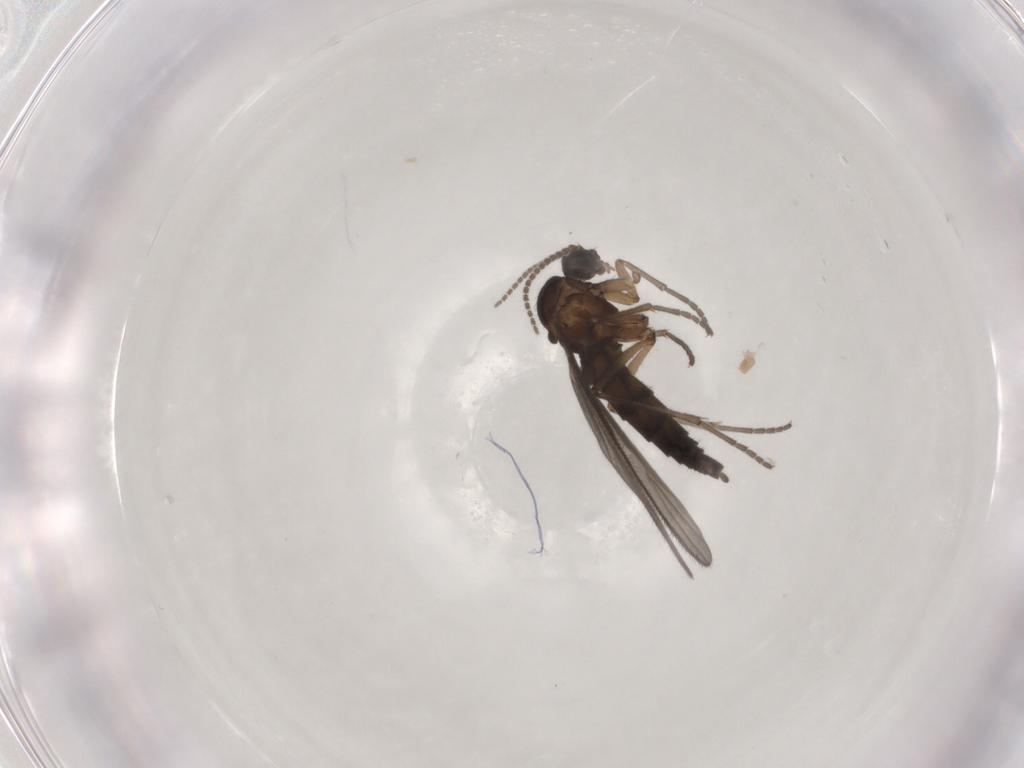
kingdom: Animalia
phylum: Arthropoda
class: Insecta
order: Diptera
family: Sciaridae
